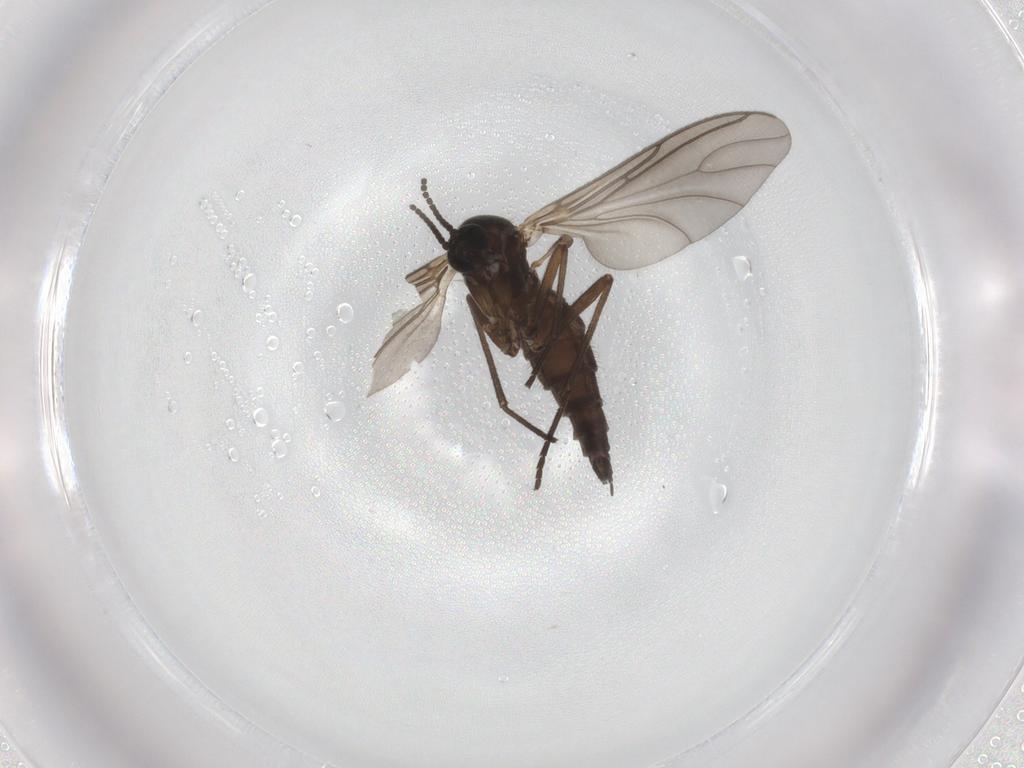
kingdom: Animalia
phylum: Arthropoda
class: Insecta
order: Diptera
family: Sciaridae
